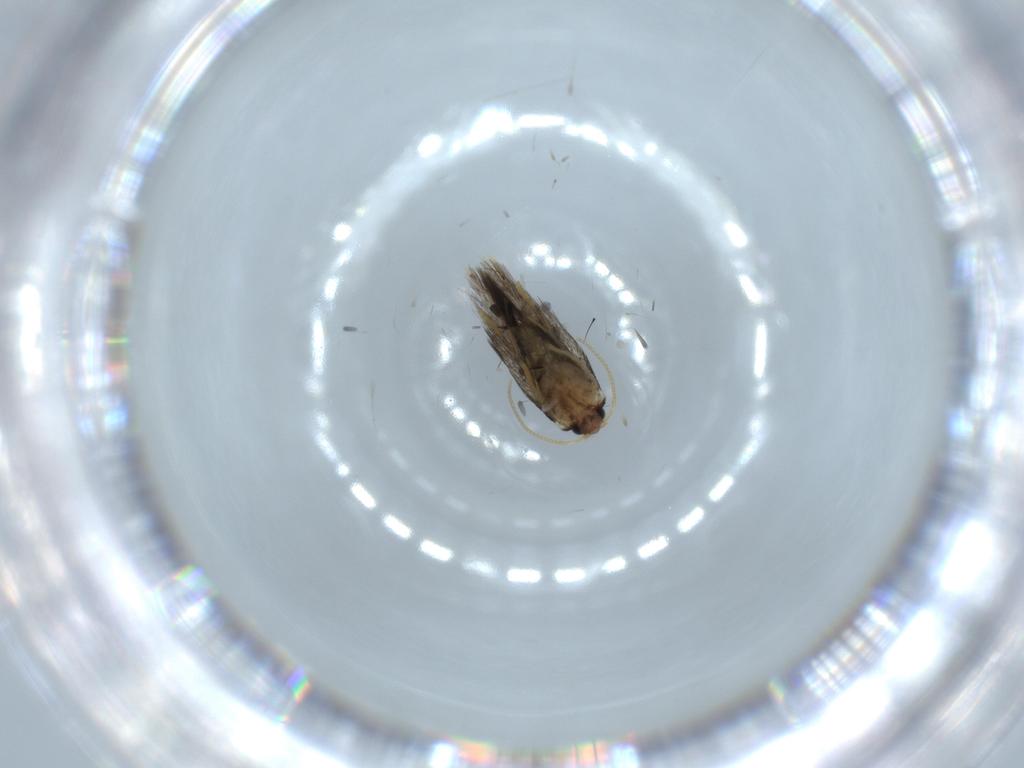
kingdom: Animalia
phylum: Arthropoda
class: Insecta
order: Lepidoptera
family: Nepticulidae
